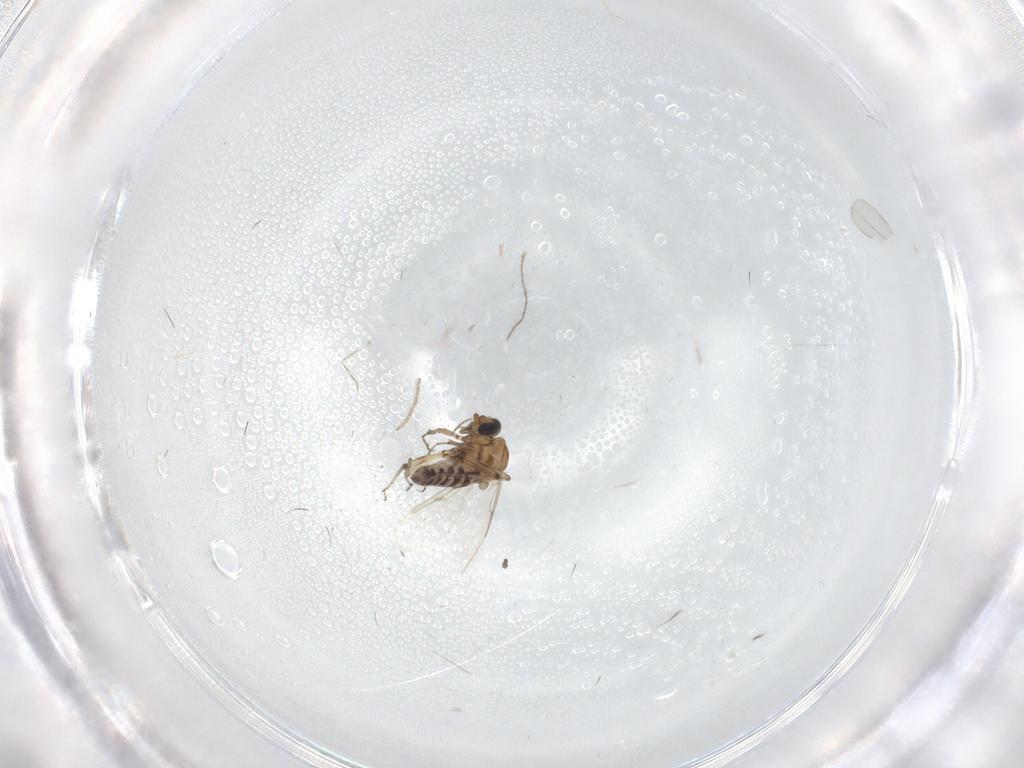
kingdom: Animalia
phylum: Arthropoda
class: Insecta
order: Diptera
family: Ceratopogonidae
